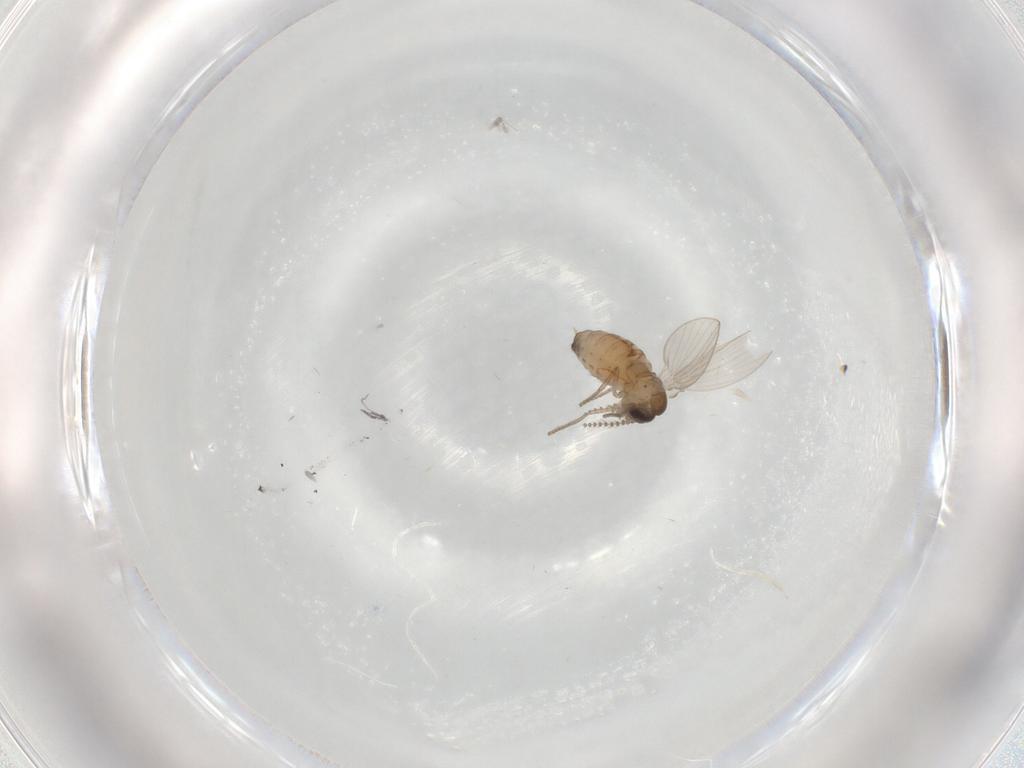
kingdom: Animalia
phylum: Arthropoda
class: Insecta
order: Diptera
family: Psychodidae
